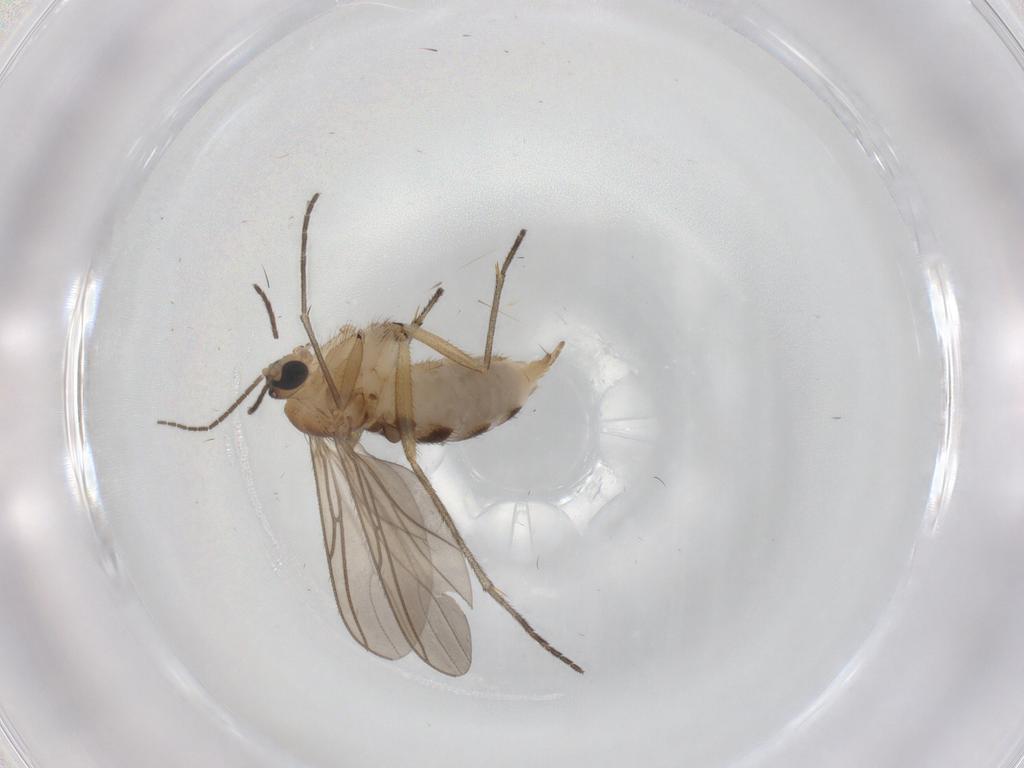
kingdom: Animalia
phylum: Arthropoda
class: Insecta
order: Diptera
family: Sciaridae
